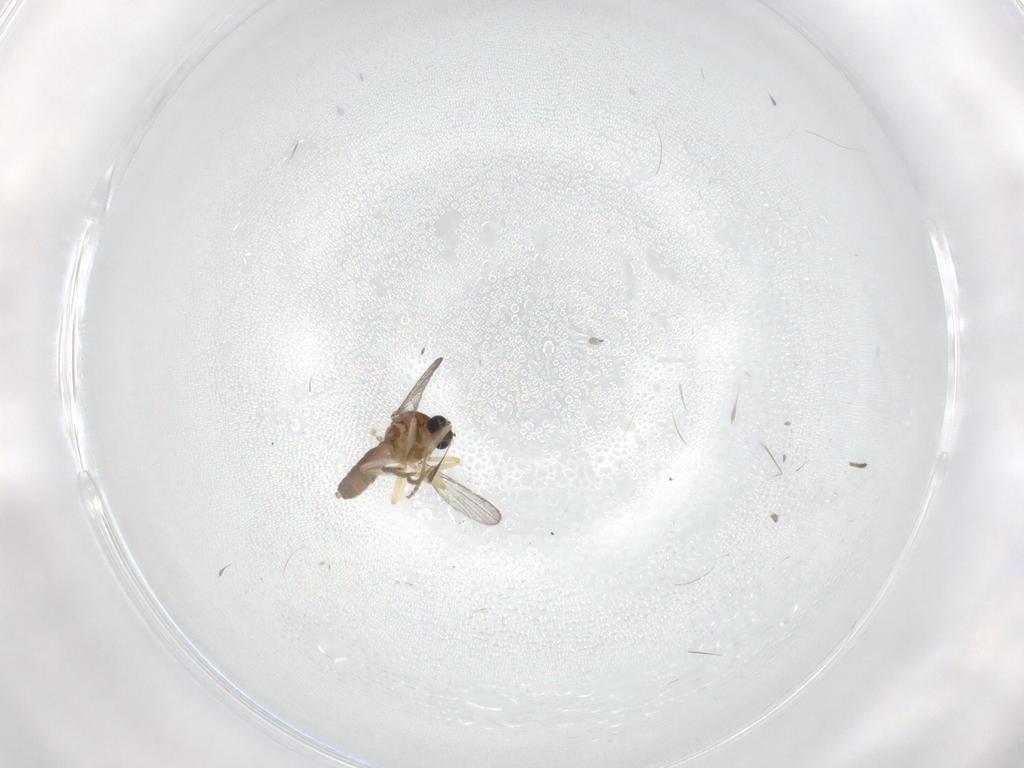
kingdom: Animalia
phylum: Arthropoda
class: Insecta
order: Diptera
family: Ceratopogonidae
